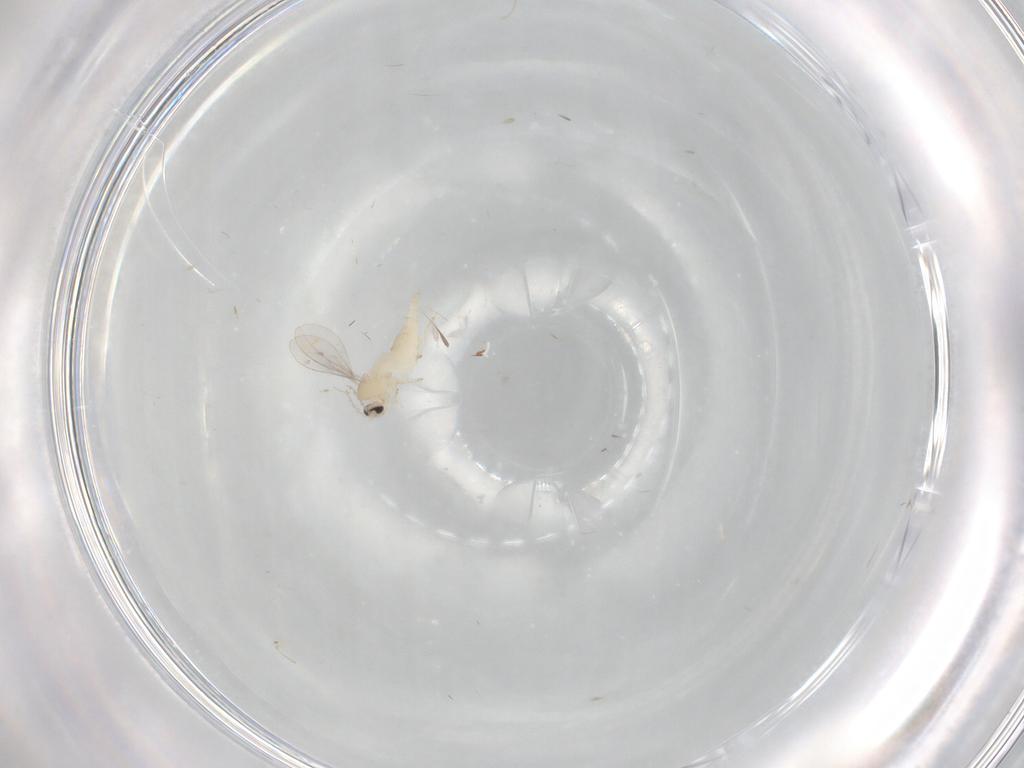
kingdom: Animalia
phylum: Arthropoda
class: Insecta
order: Diptera
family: Cecidomyiidae
